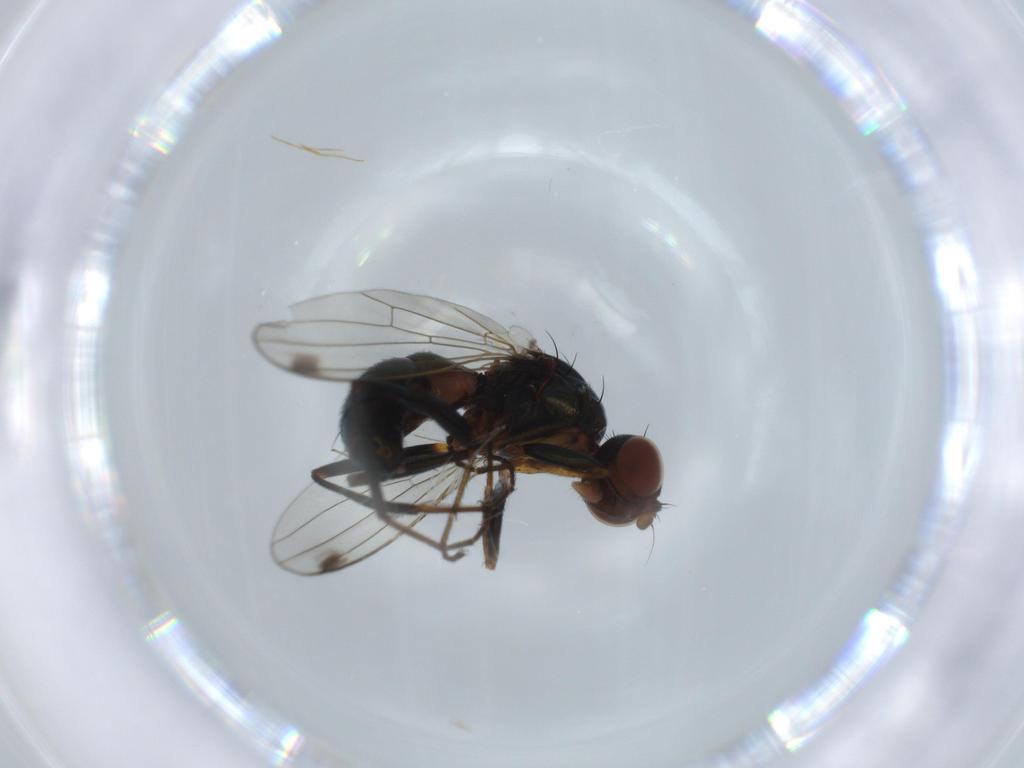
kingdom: Animalia
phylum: Arthropoda
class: Insecta
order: Diptera
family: Sepsidae
